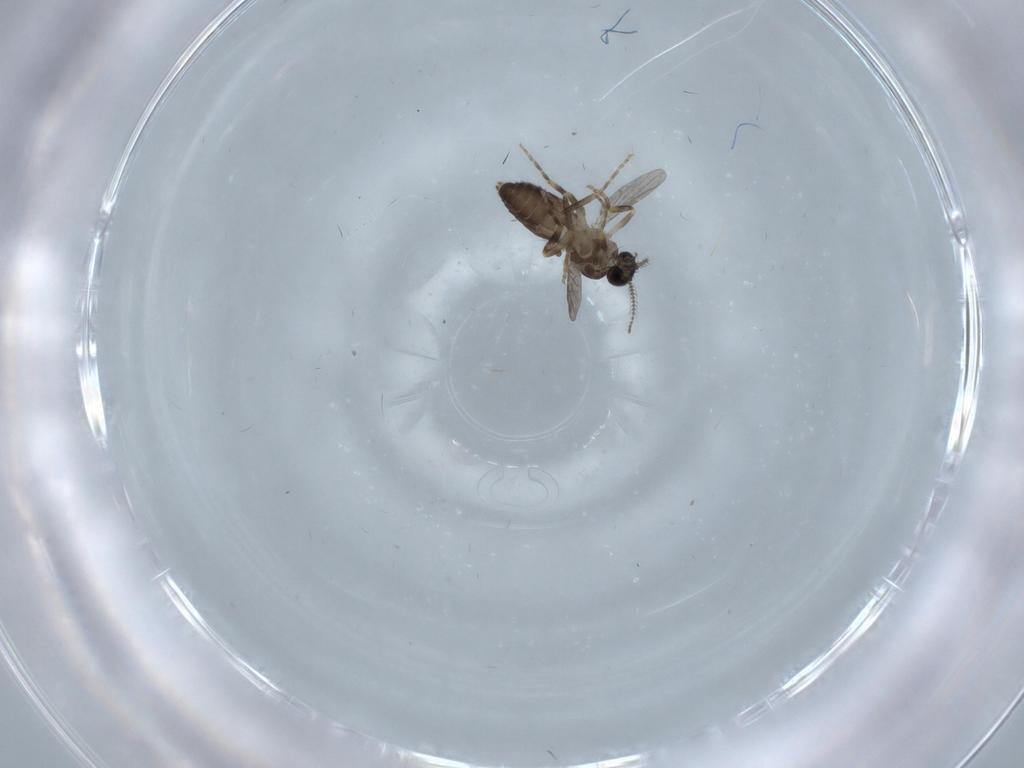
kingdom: Animalia
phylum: Arthropoda
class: Insecta
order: Diptera
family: Ceratopogonidae
